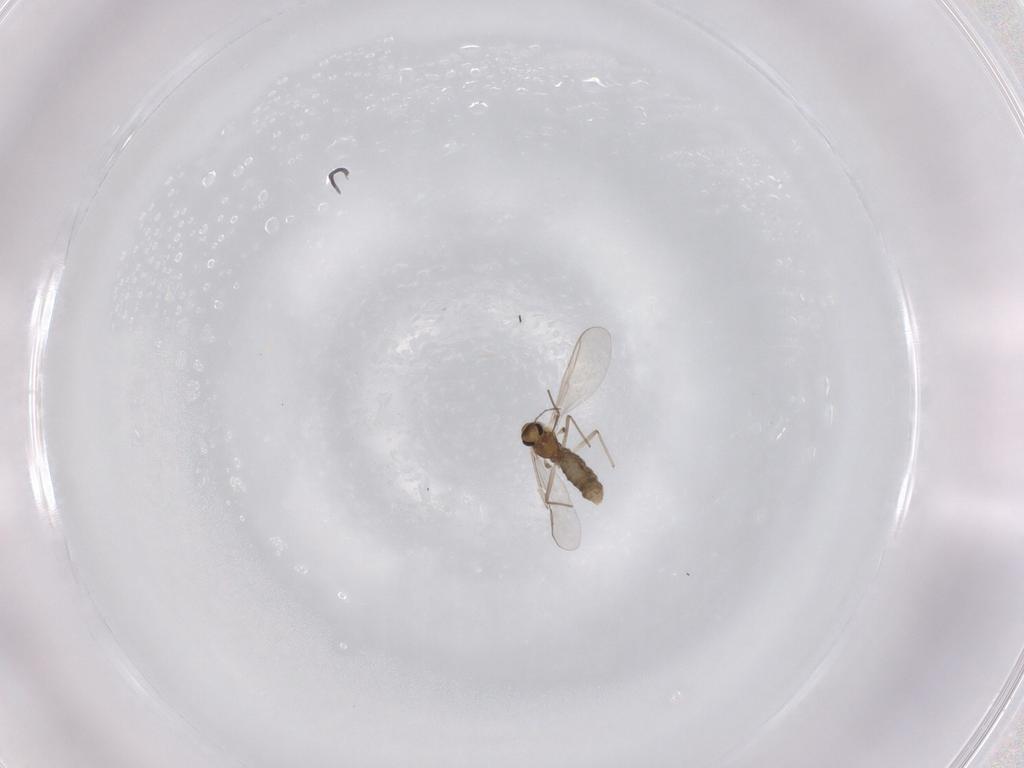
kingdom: Animalia
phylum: Arthropoda
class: Insecta
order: Diptera
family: Chironomidae
